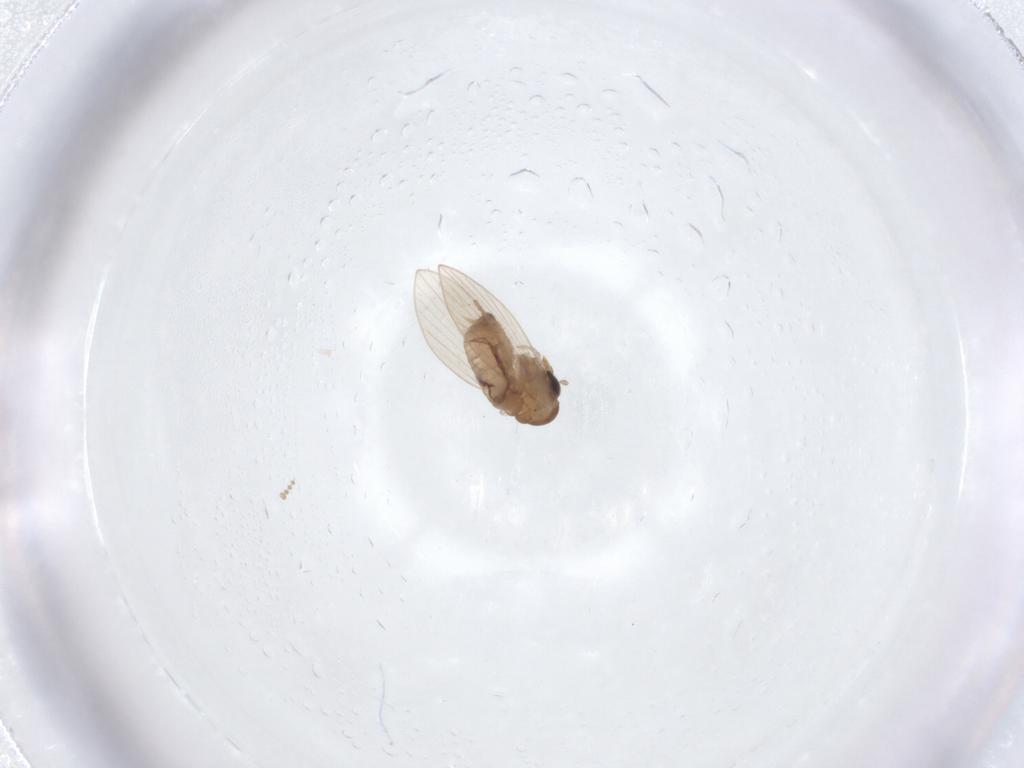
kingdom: Animalia
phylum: Arthropoda
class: Insecta
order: Diptera
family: Psychodidae
